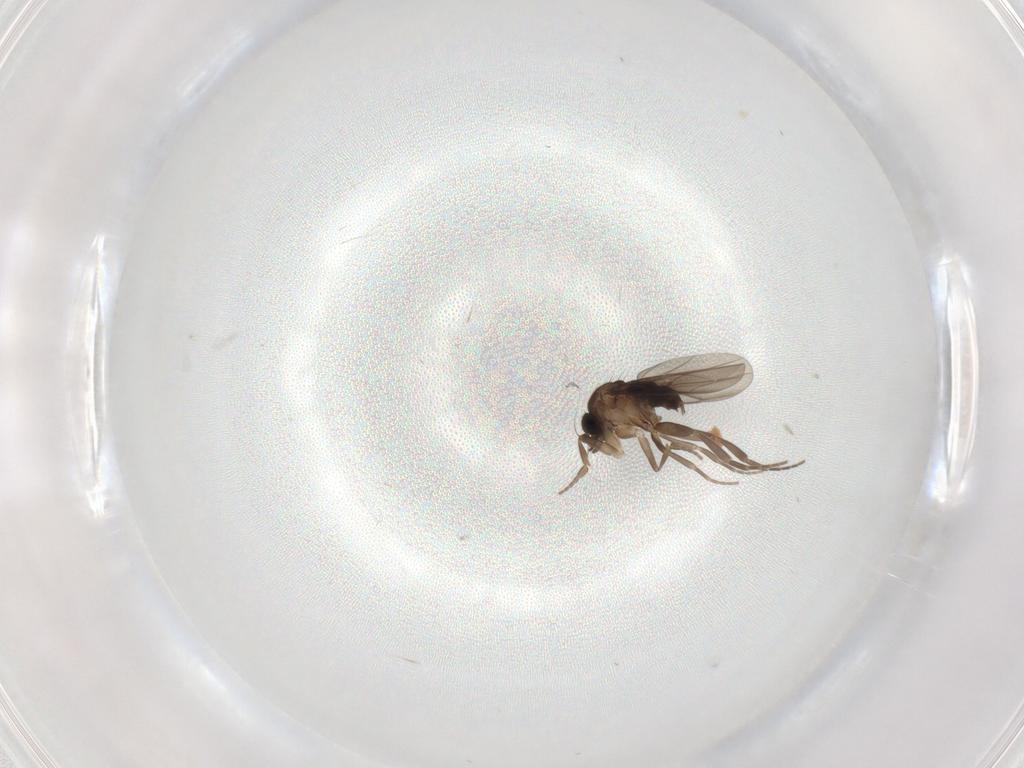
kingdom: Animalia
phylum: Arthropoda
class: Insecta
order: Diptera
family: Phoridae
